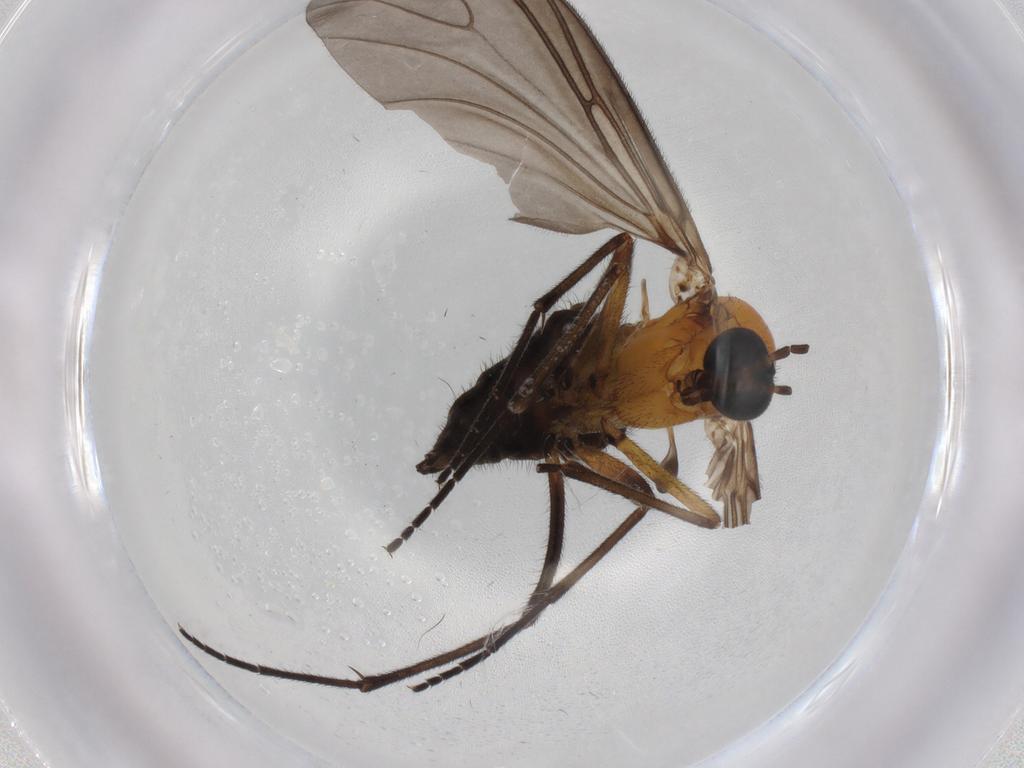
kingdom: Animalia
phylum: Arthropoda
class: Insecta
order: Diptera
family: Sciaridae
